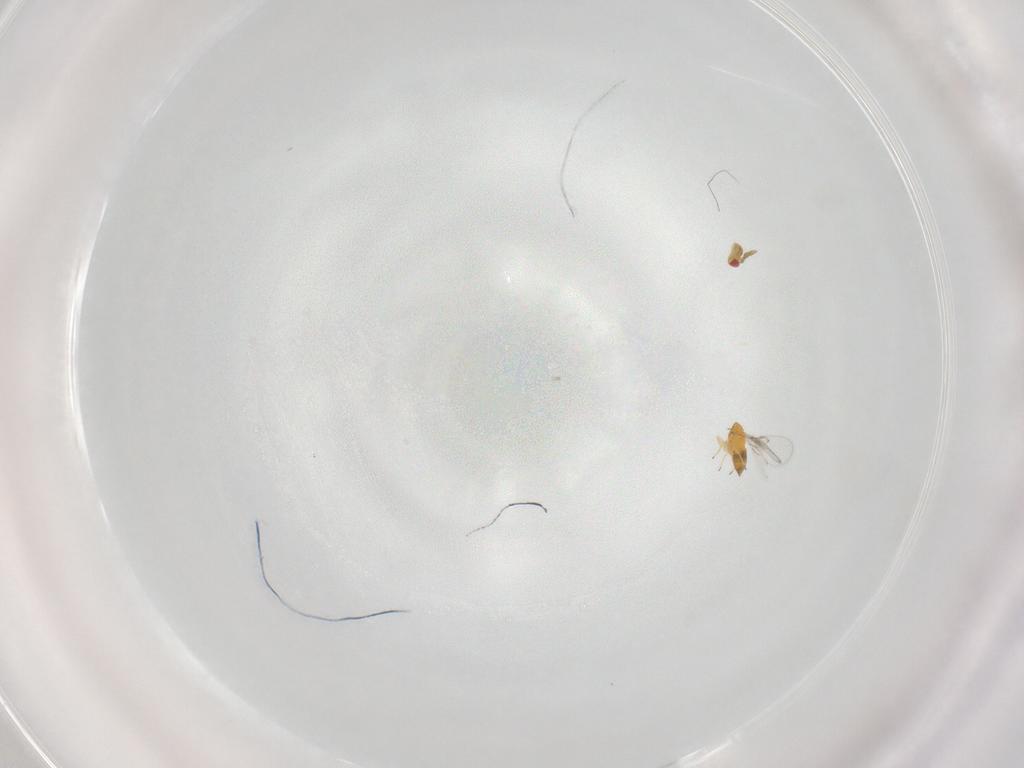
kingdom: Animalia
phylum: Arthropoda
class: Insecta
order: Hymenoptera
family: Trichogrammatidae
